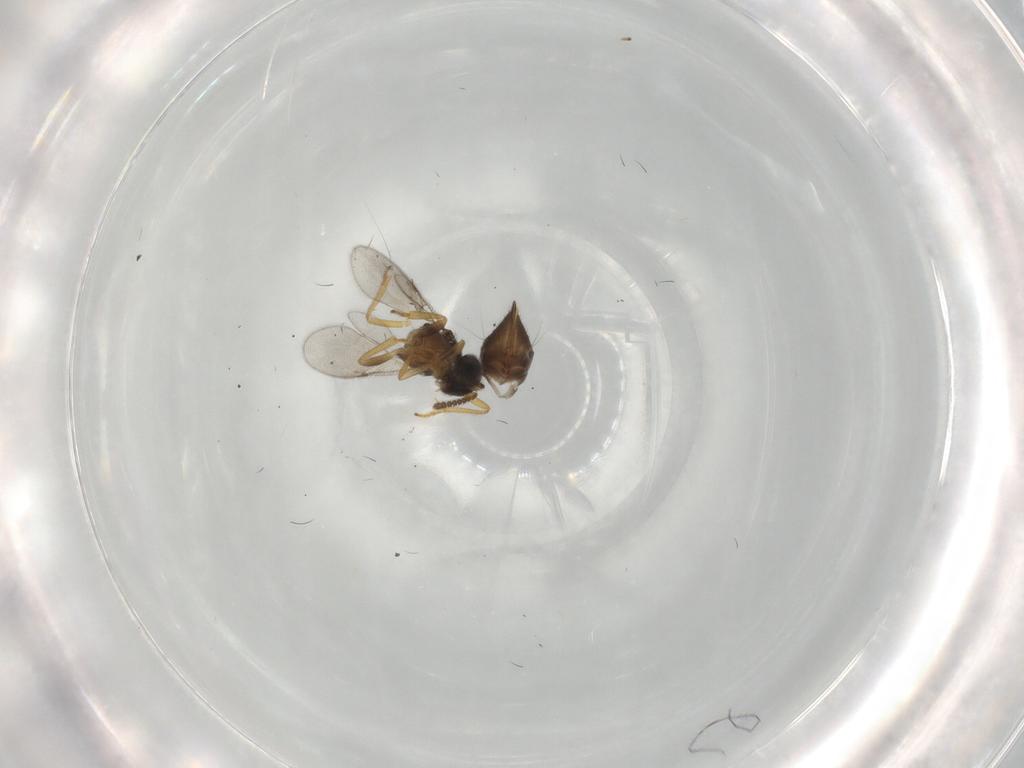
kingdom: Animalia
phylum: Arthropoda
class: Insecta
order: Hymenoptera
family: Encyrtidae
